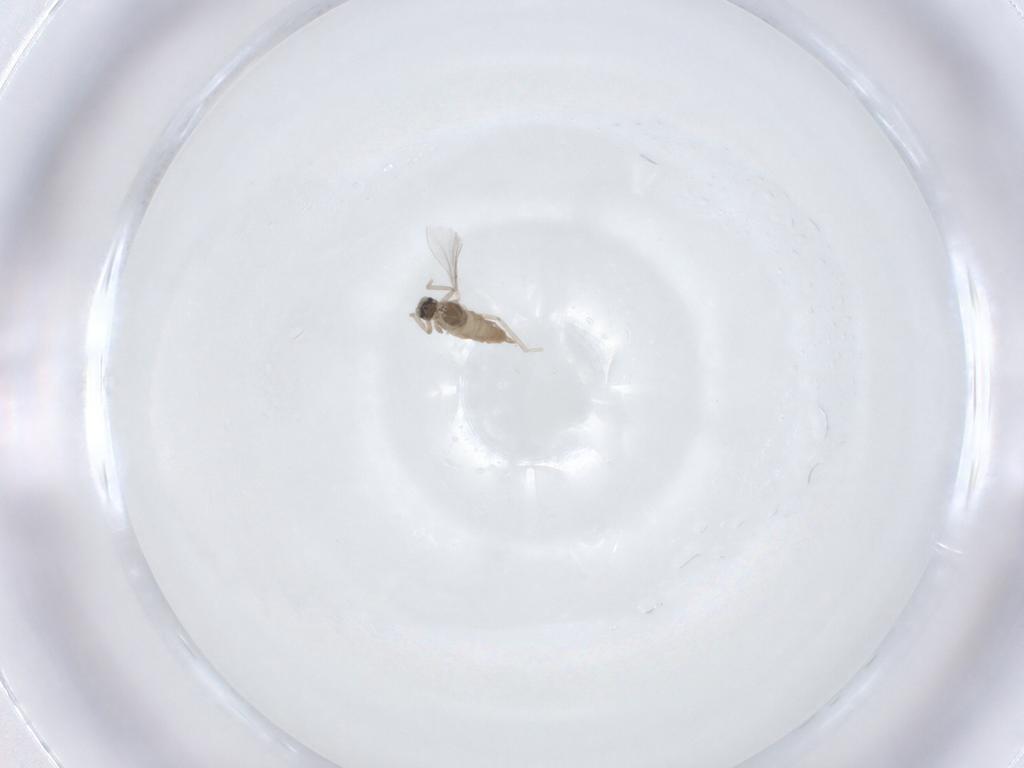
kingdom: Animalia
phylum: Arthropoda
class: Insecta
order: Diptera
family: Cecidomyiidae
